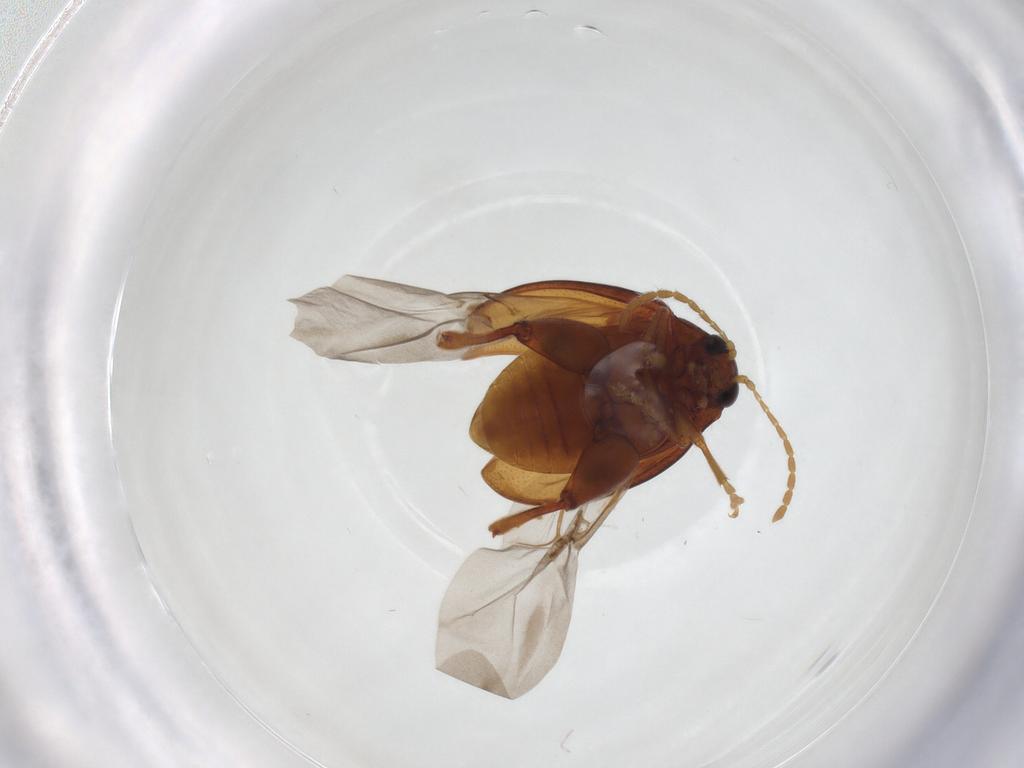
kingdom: Animalia
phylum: Arthropoda
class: Insecta
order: Coleoptera
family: Chrysomelidae
